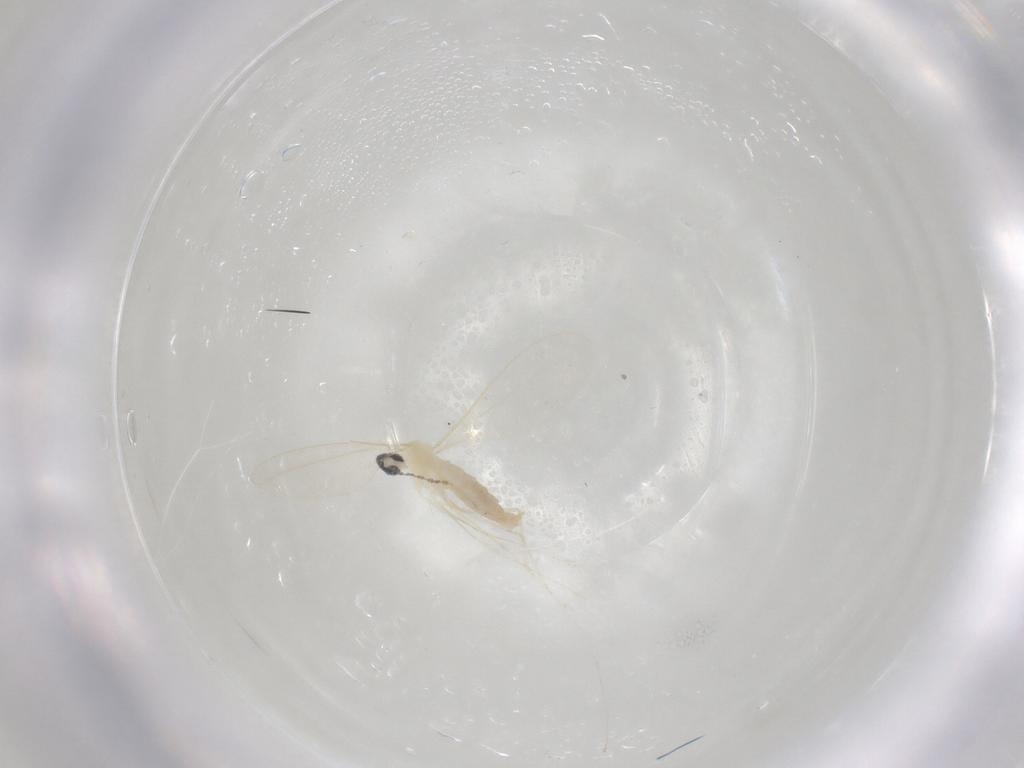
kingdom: Animalia
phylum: Arthropoda
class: Insecta
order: Diptera
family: Cecidomyiidae
